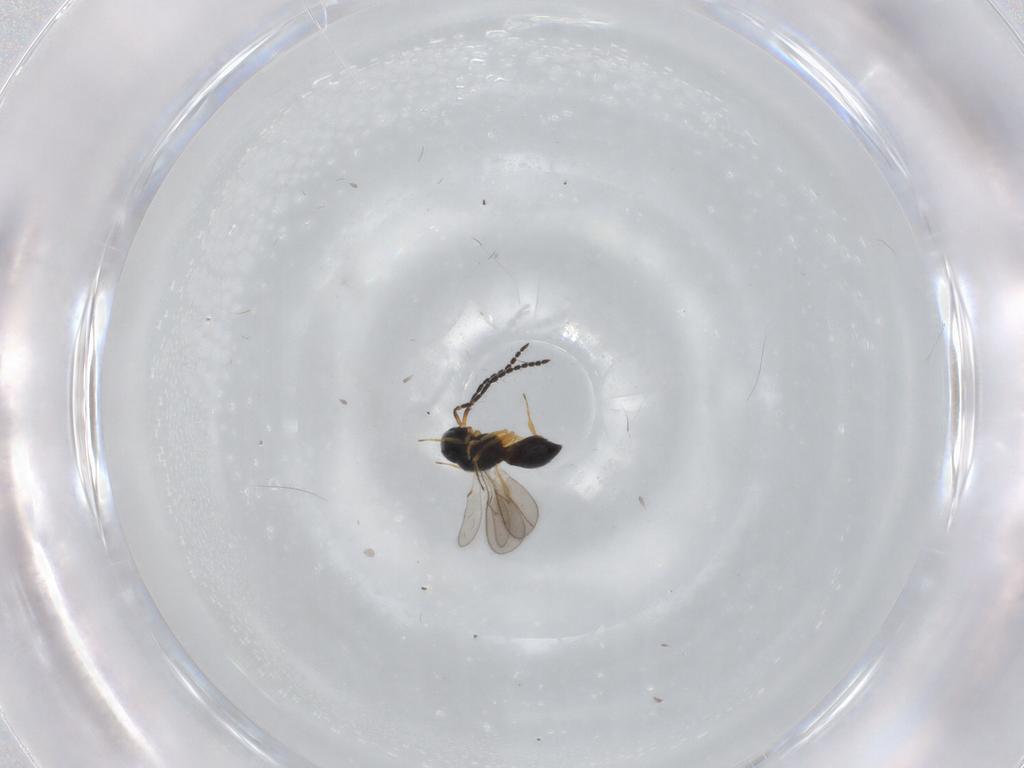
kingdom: Animalia
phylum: Arthropoda
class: Insecta
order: Hymenoptera
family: Scelionidae
